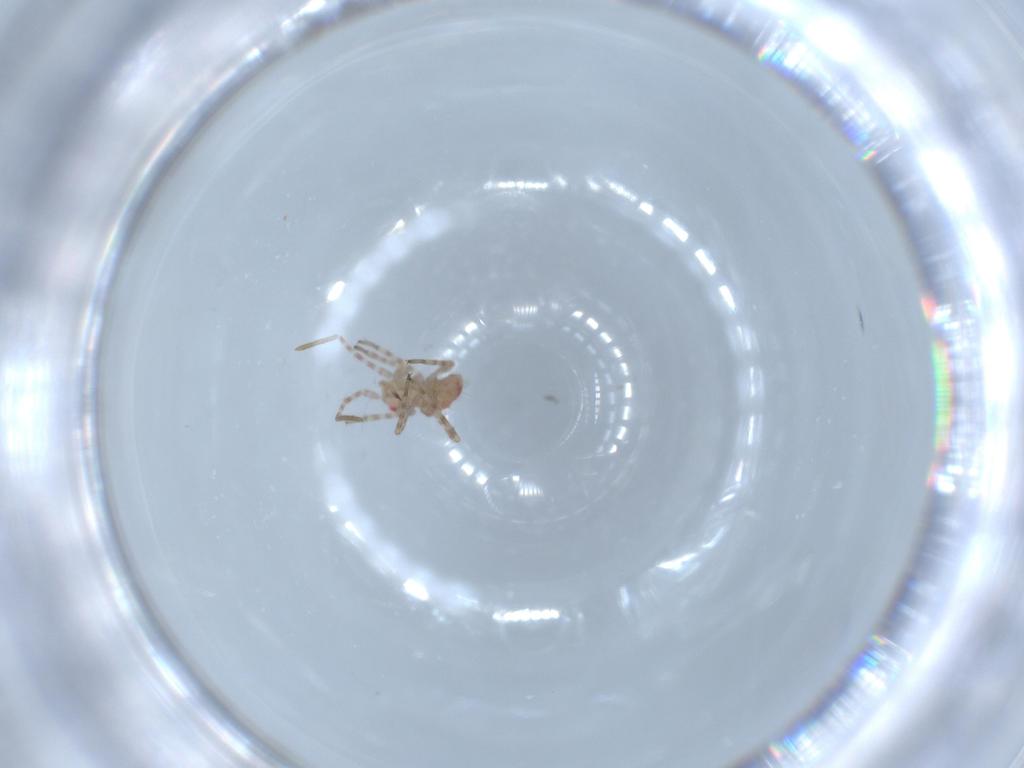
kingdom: Animalia
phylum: Arthropoda
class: Insecta
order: Hemiptera
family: Miridae
